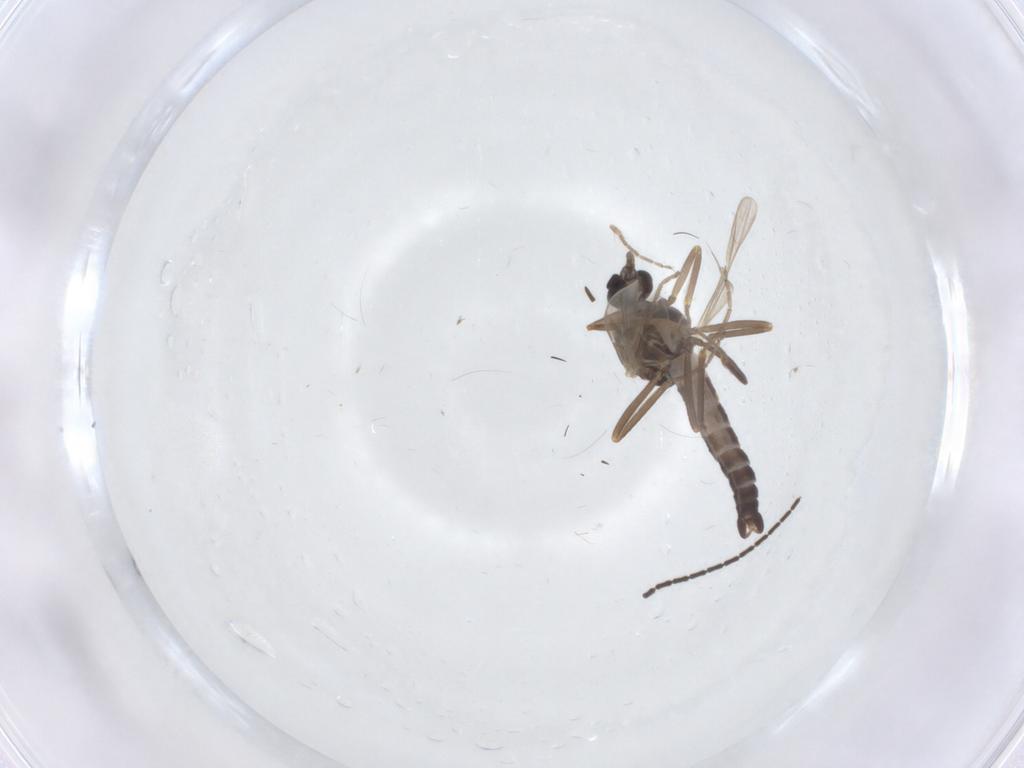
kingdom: Animalia
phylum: Arthropoda
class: Insecta
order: Diptera
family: Ceratopogonidae
